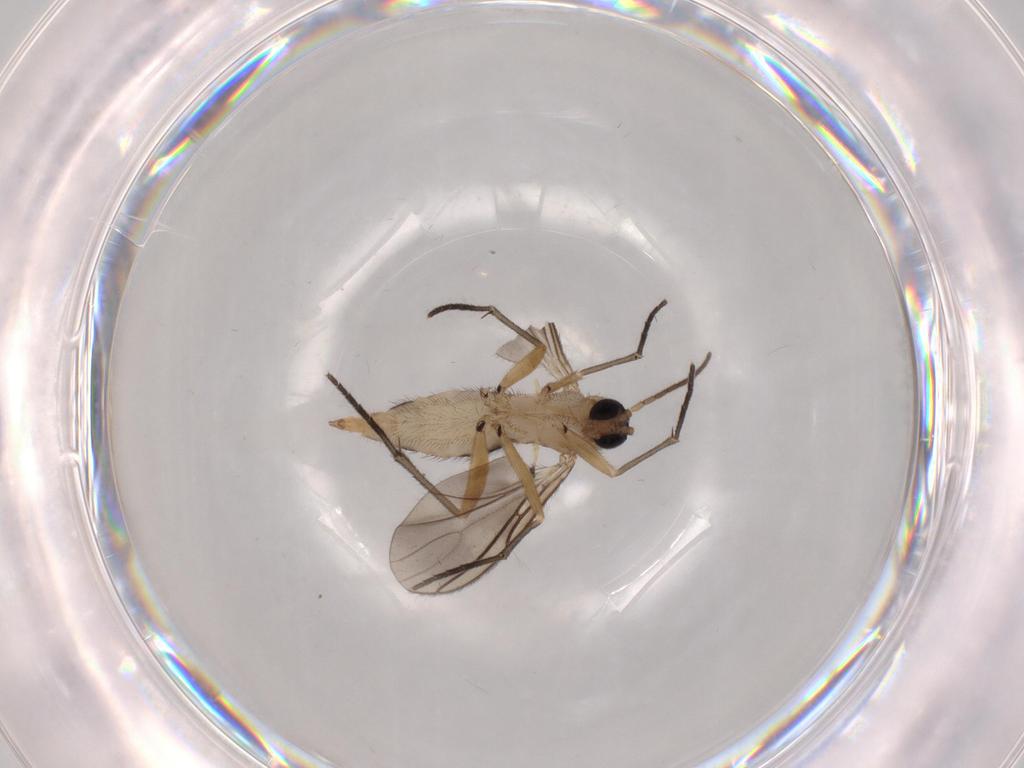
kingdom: Animalia
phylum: Arthropoda
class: Insecta
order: Diptera
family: Sciaridae
